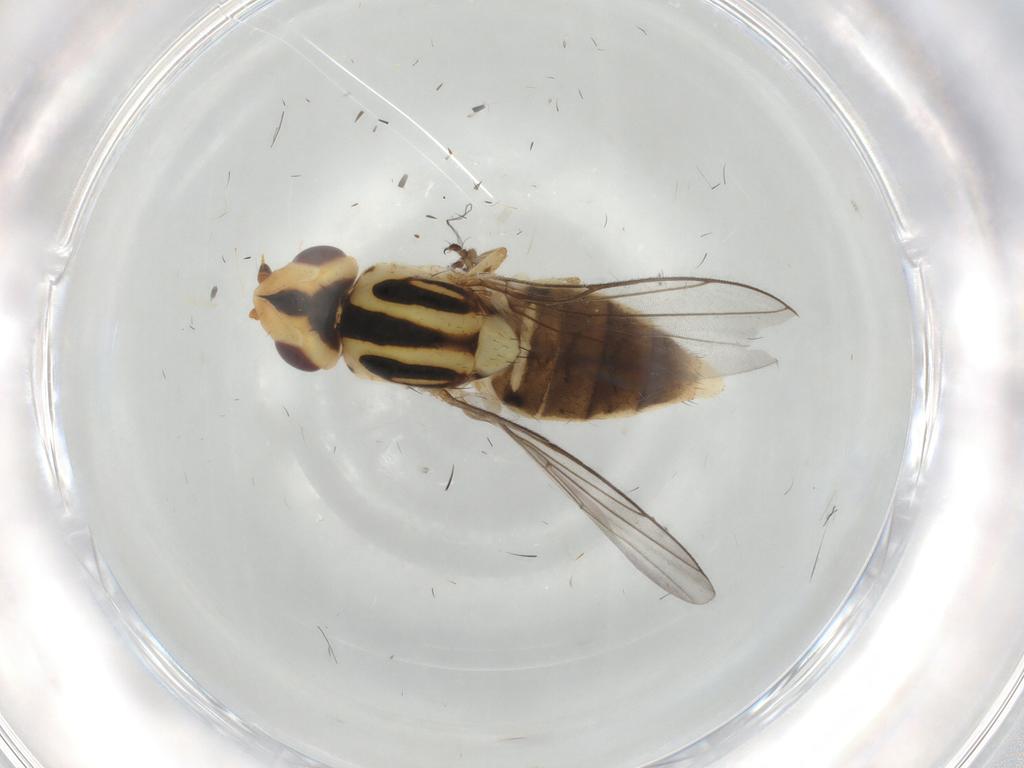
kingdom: Animalia
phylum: Arthropoda
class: Insecta
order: Diptera
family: Chloropidae
